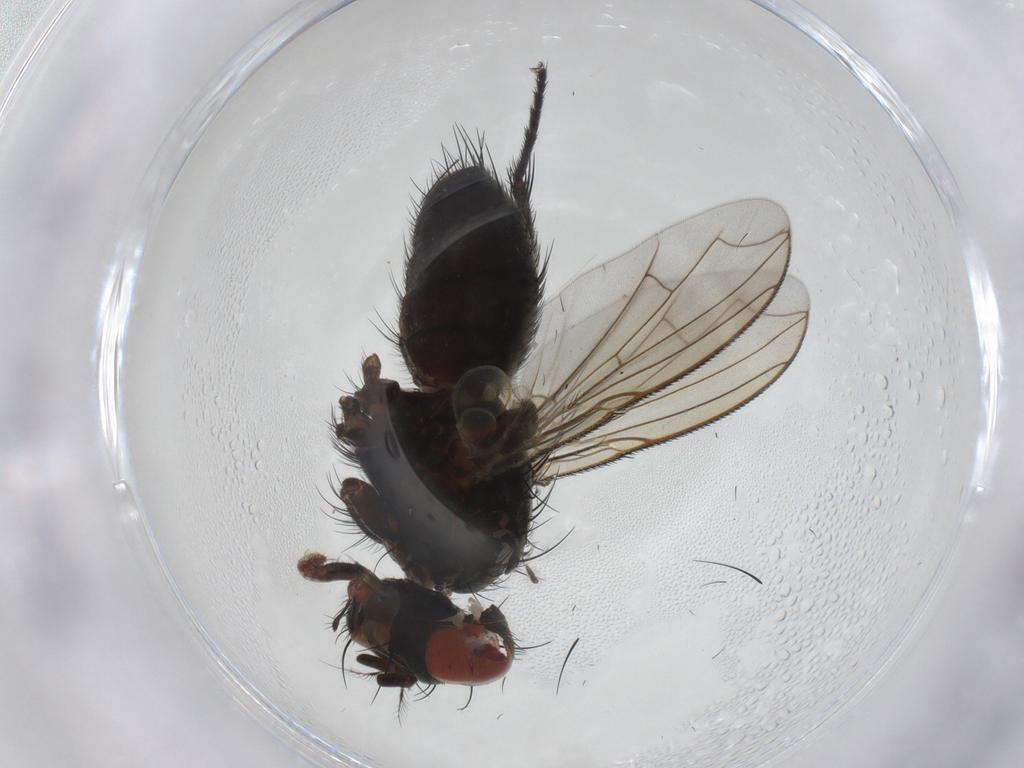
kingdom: Animalia
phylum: Arthropoda
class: Insecta
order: Diptera
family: Sarcophagidae
